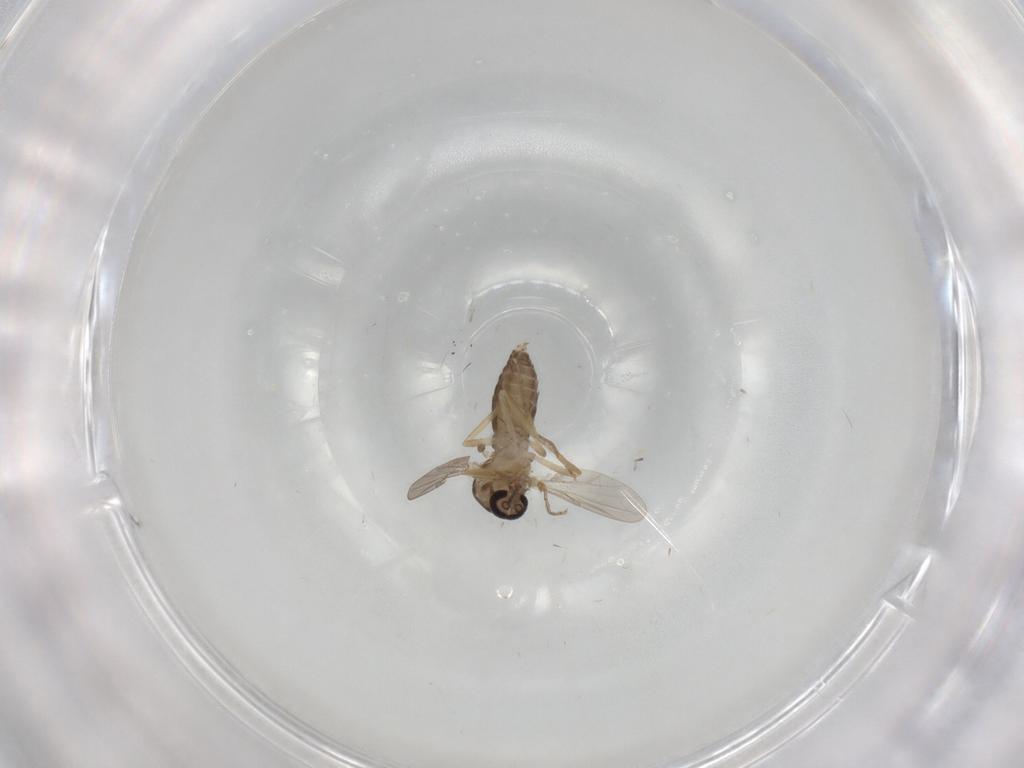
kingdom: Animalia
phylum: Arthropoda
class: Insecta
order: Diptera
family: Ceratopogonidae
